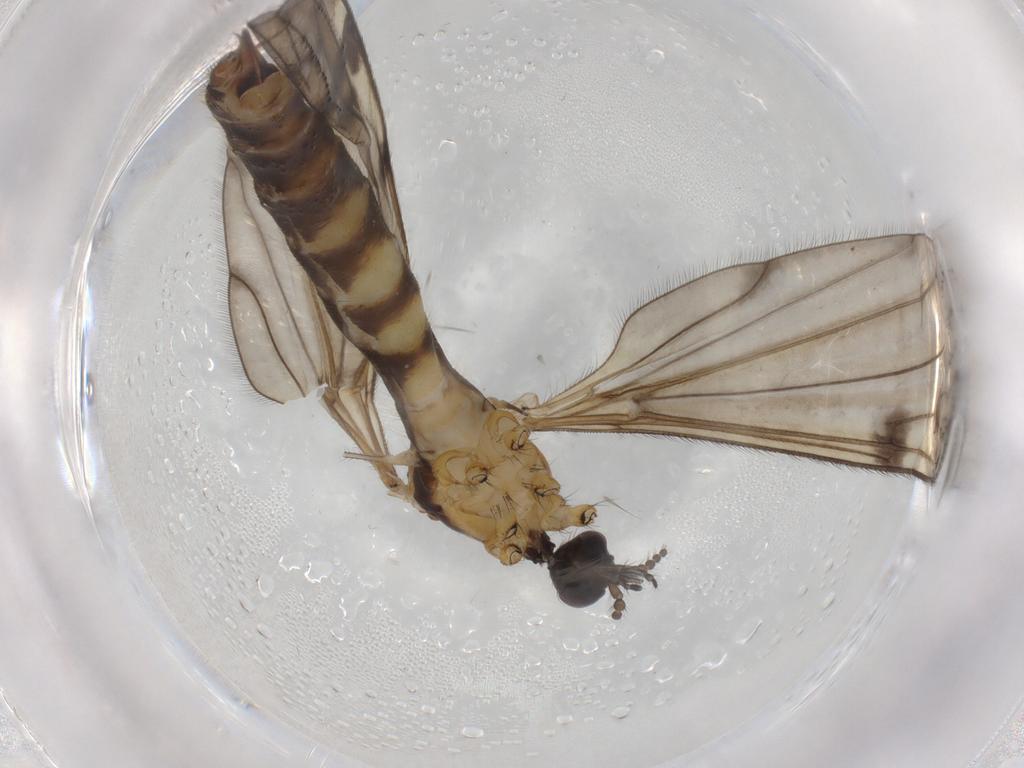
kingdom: Animalia
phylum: Arthropoda
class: Insecta
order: Diptera
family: Limoniidae
